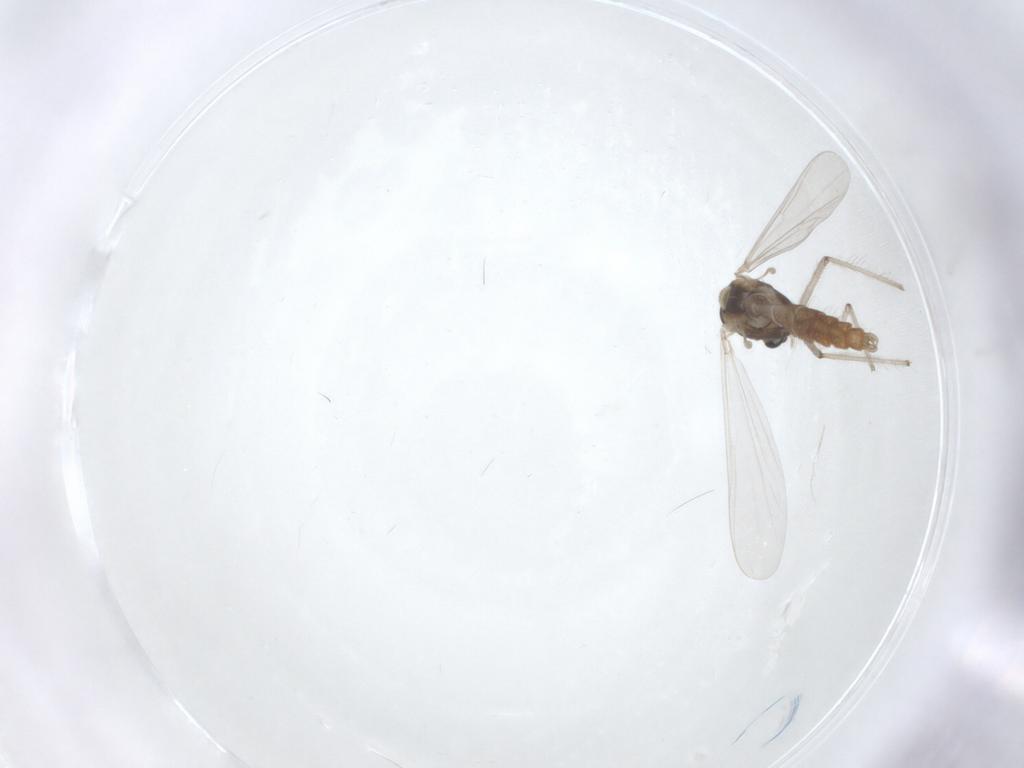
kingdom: Animalia
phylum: Arthropoda
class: Insecta
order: Diptera
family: Chironomidae
